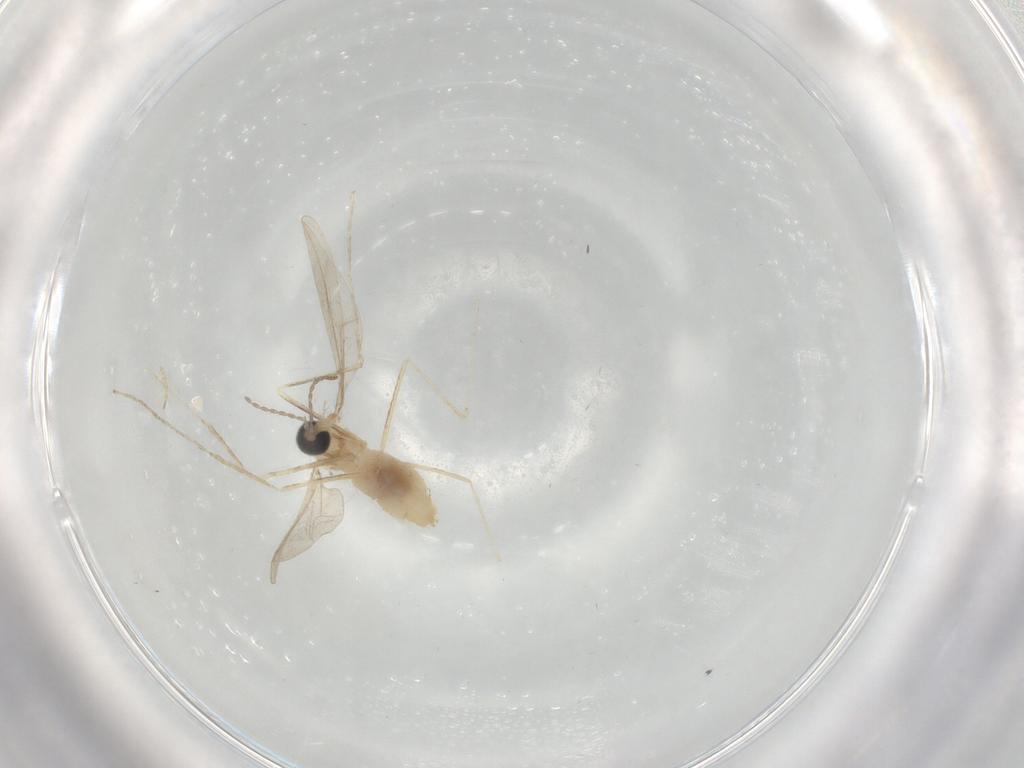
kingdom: Animalia
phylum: Arthropoda
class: Insecta
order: Diptera
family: Cecidomyiidae
